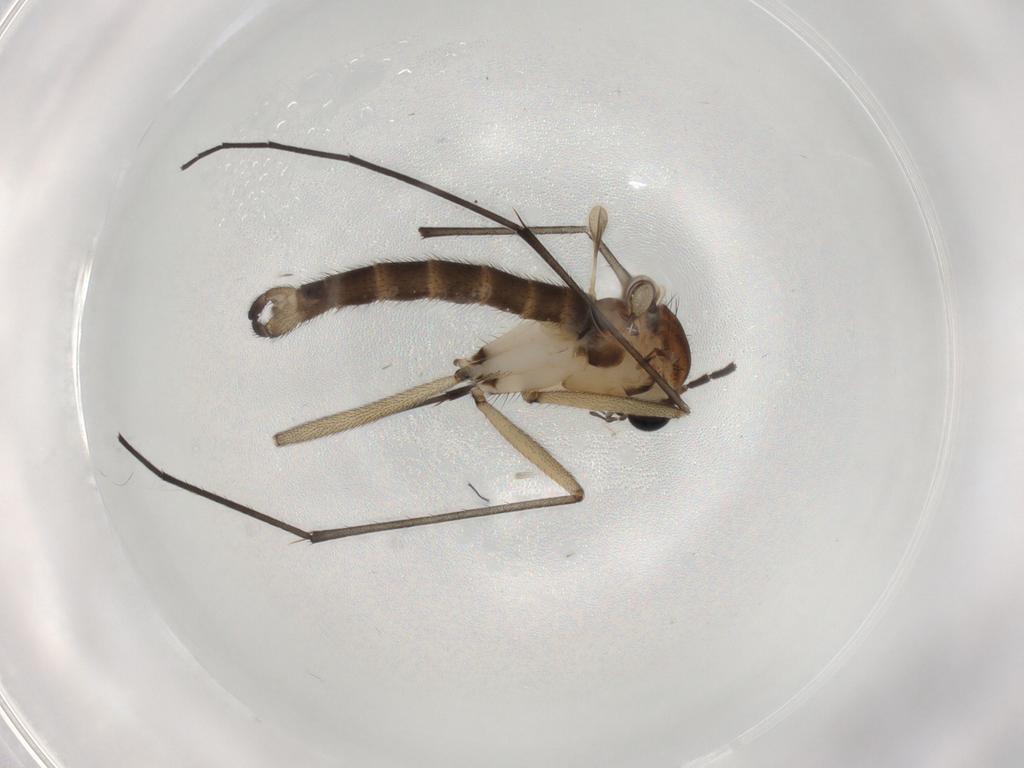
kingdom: Animalia
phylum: Arthropoda
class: Insecta
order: Diptera
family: Sciaridae
